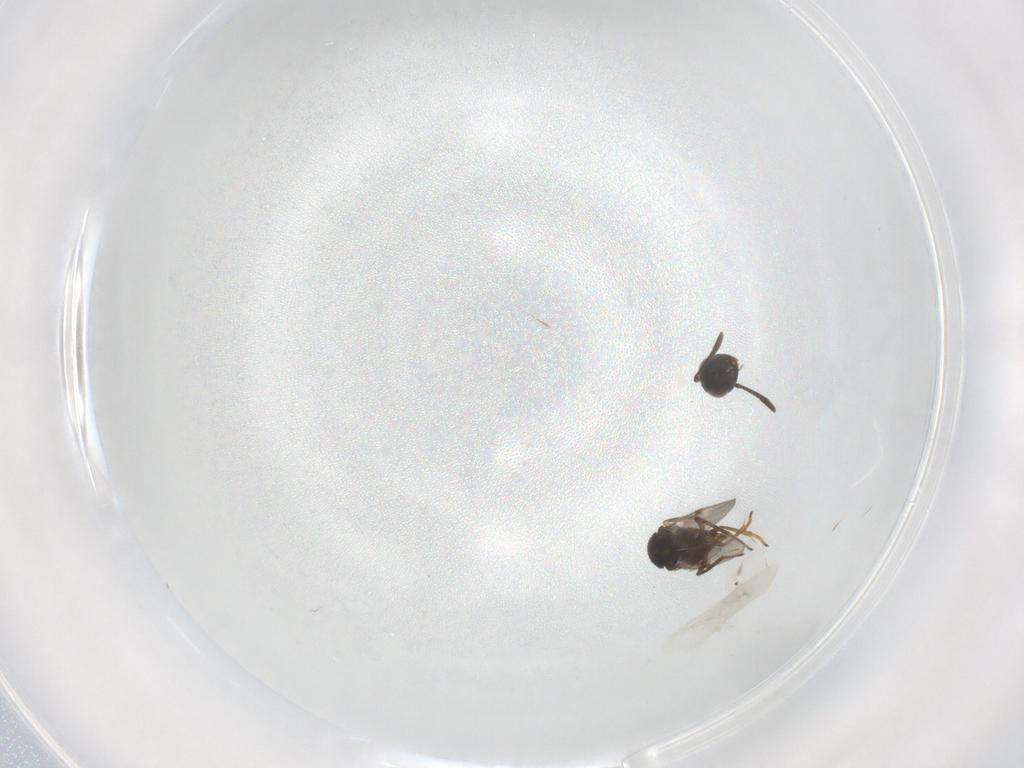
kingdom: Animalia
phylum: Arthropoda
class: Insecta
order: Hymenoptera
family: Encyrtidae
